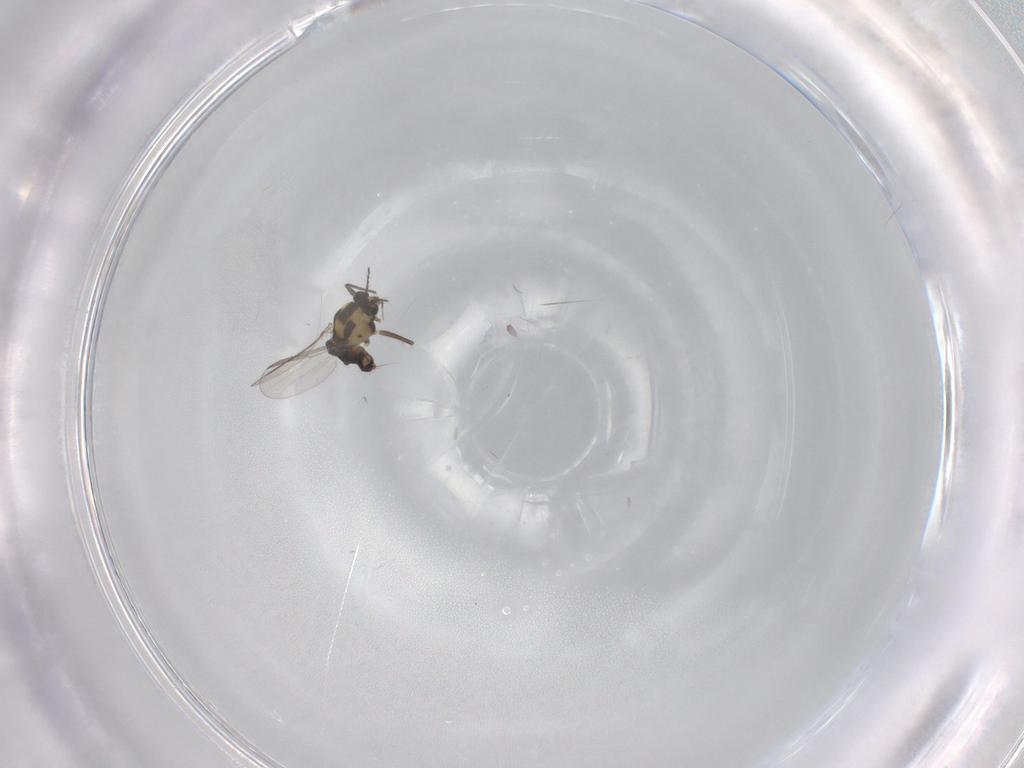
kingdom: Animalia
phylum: Arthropoda
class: Insecta
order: Diptera
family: Chironomidae
